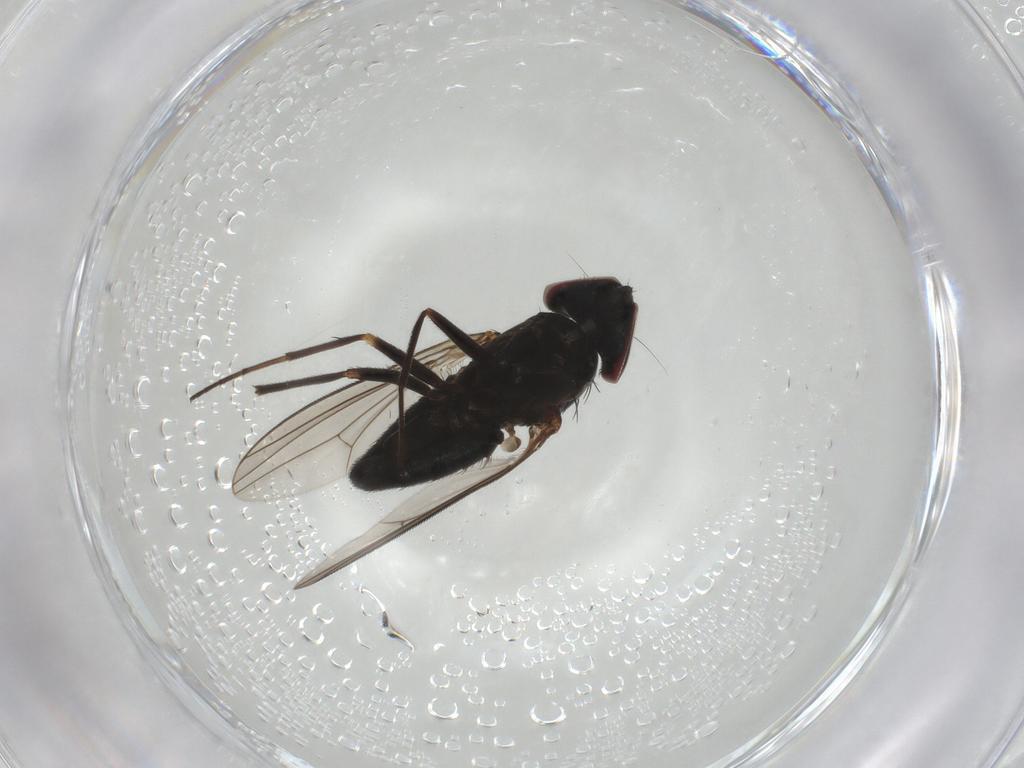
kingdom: Animalia
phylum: Arthropoda
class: Insecta
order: Diptera
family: Dolichopodidae
